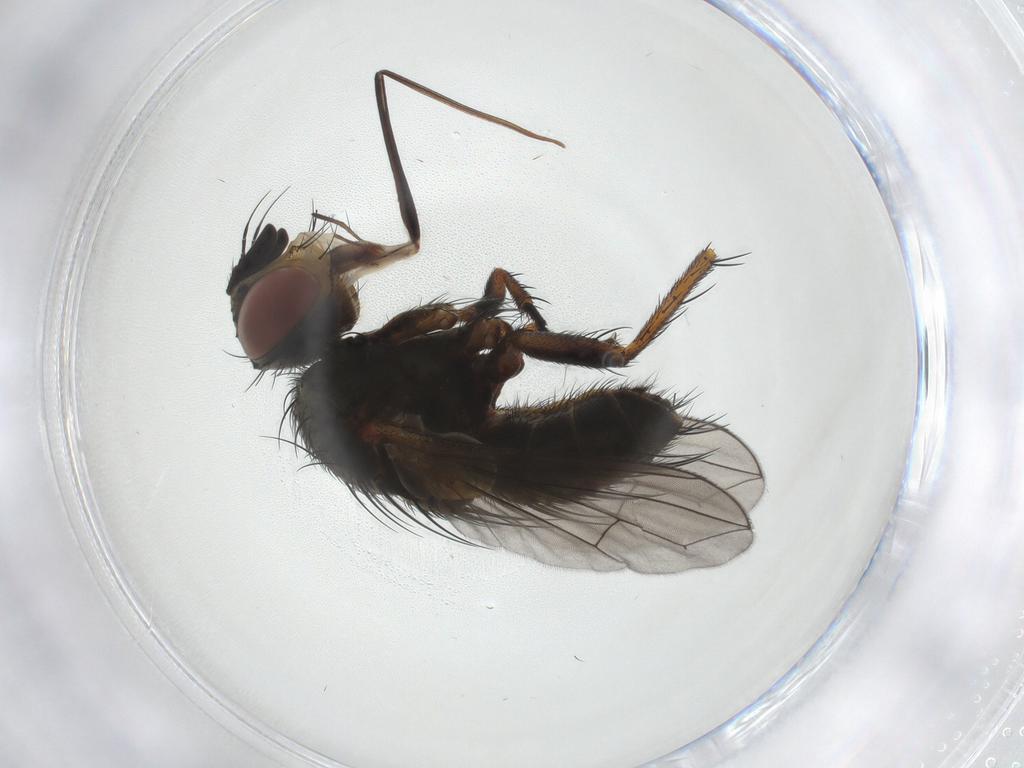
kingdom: Animalia
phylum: Arthropoda
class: Insecta
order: Diptera
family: Tachinidae
